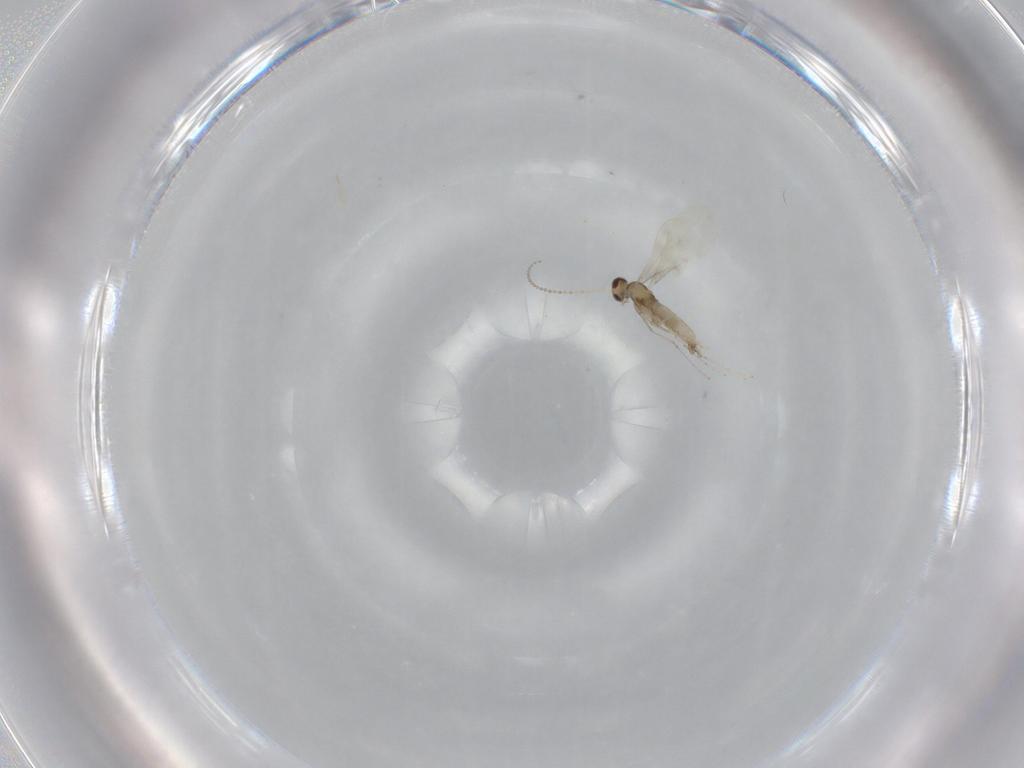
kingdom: Animalia
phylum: Arthropoda
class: Insecta
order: Diptera
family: Phoridae
